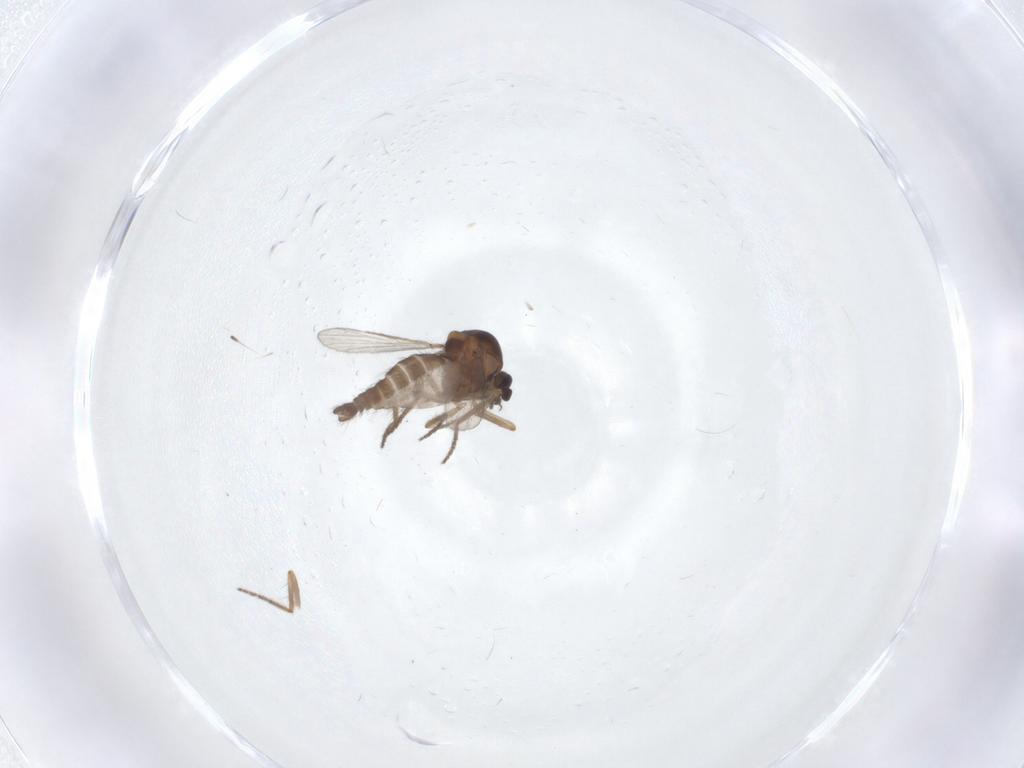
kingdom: Animalia
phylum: Arthropoda
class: Insecta
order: Diptera
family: Ceratopogonidae
